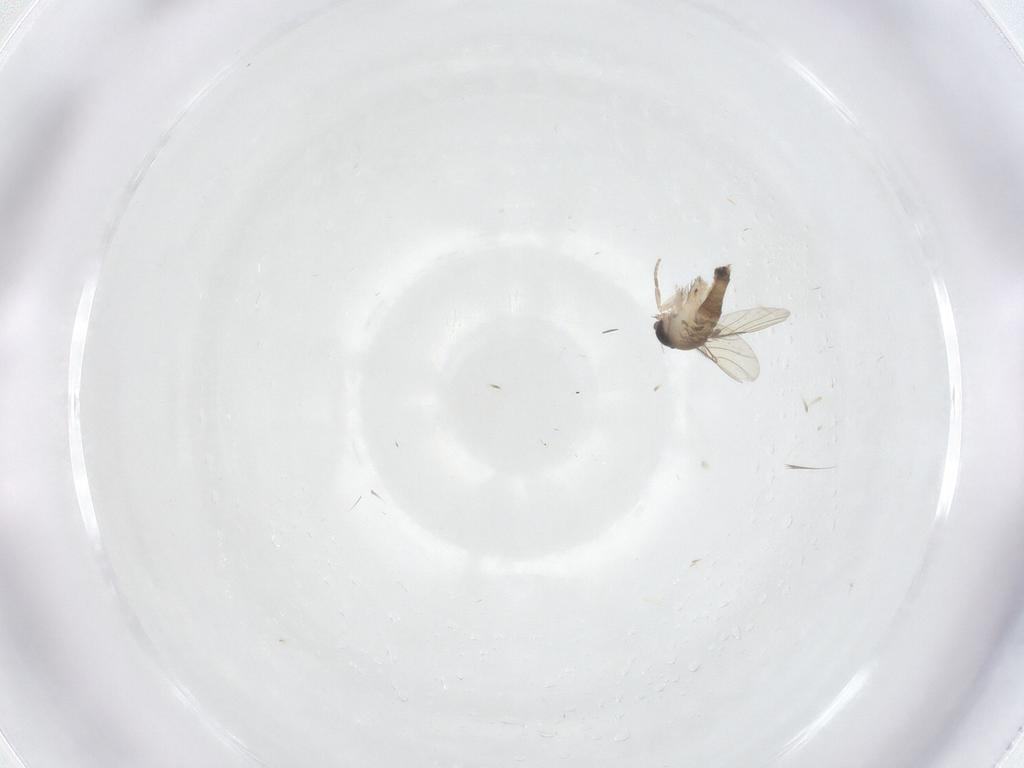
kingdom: Animalia
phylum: Arthropoda
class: Insecta
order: Diptera
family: Phoridae
